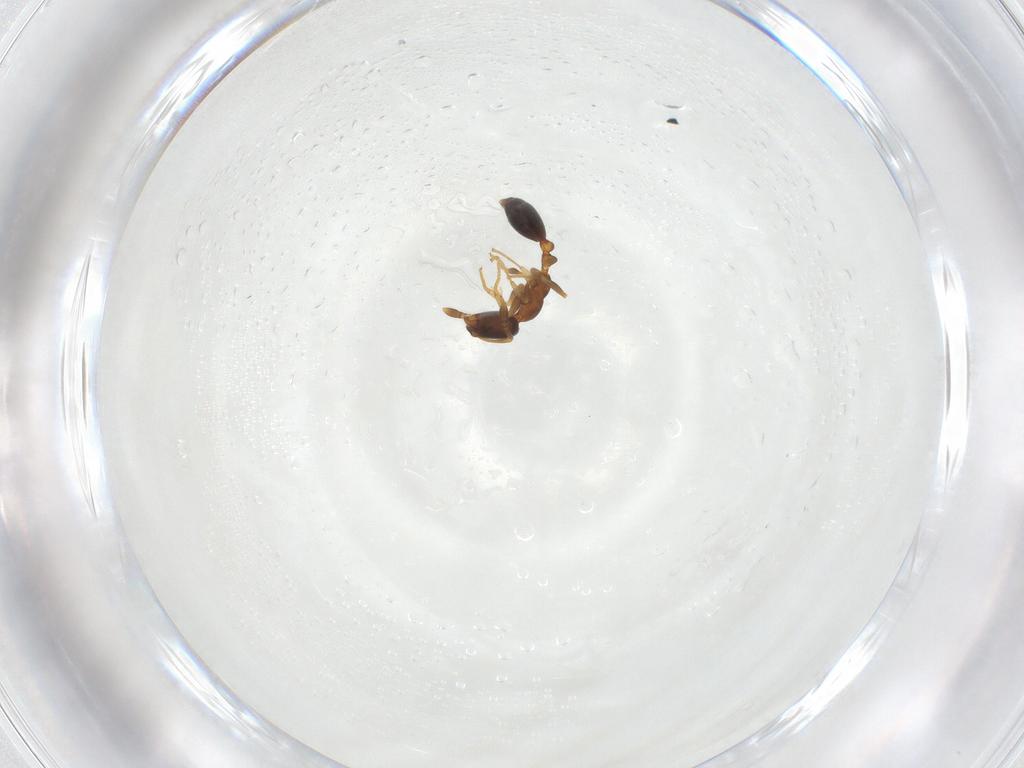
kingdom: Animalia
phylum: Arthropoda
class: Insecta
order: Hymenoptera
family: Formicidae
